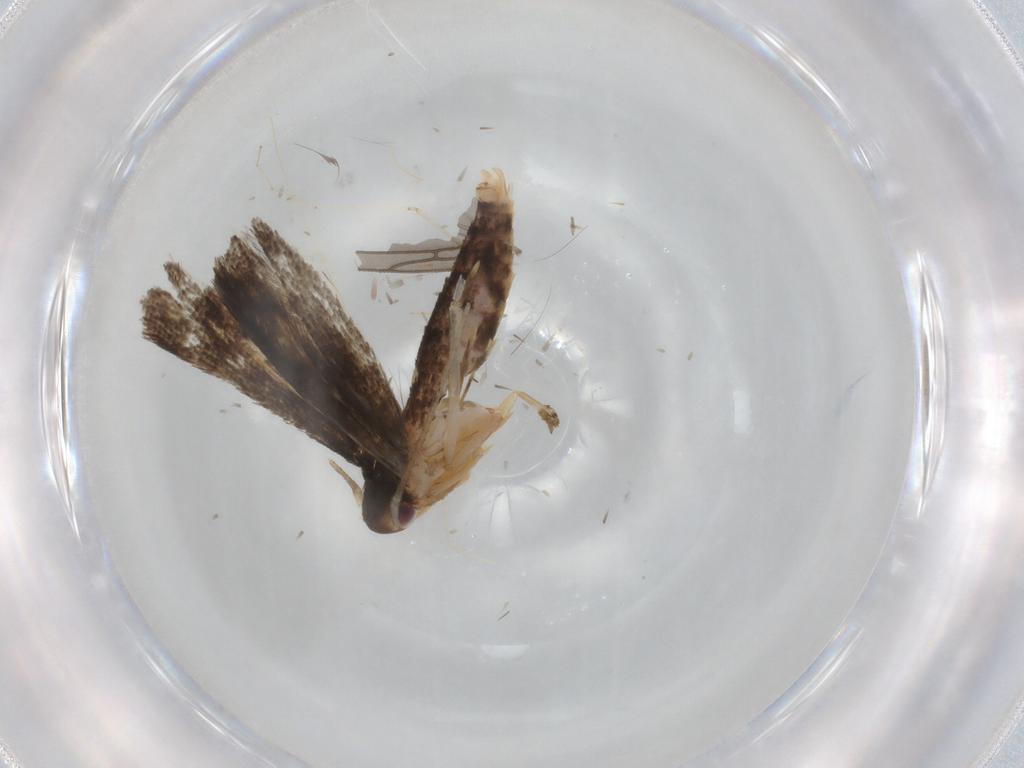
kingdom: Animalia
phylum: Arthropoda
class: Insecta
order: Lepidoptera
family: Momphidae
